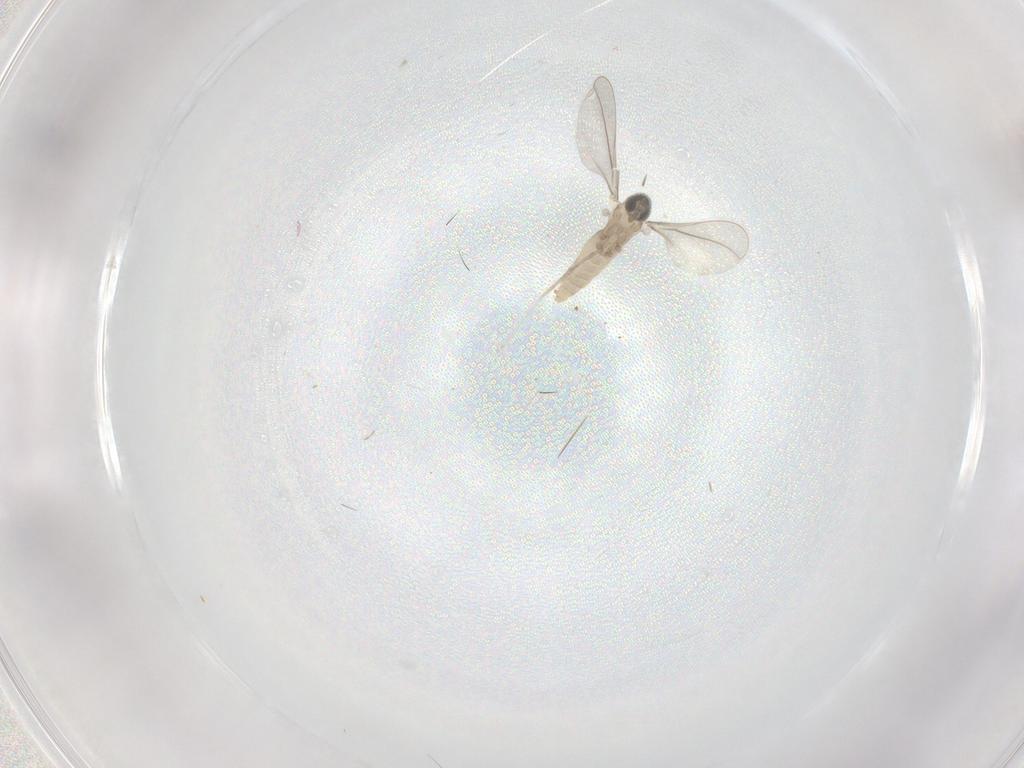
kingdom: Animalia
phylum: Arthropoda
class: Insecta
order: Diptera
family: Cecidomyiidae
